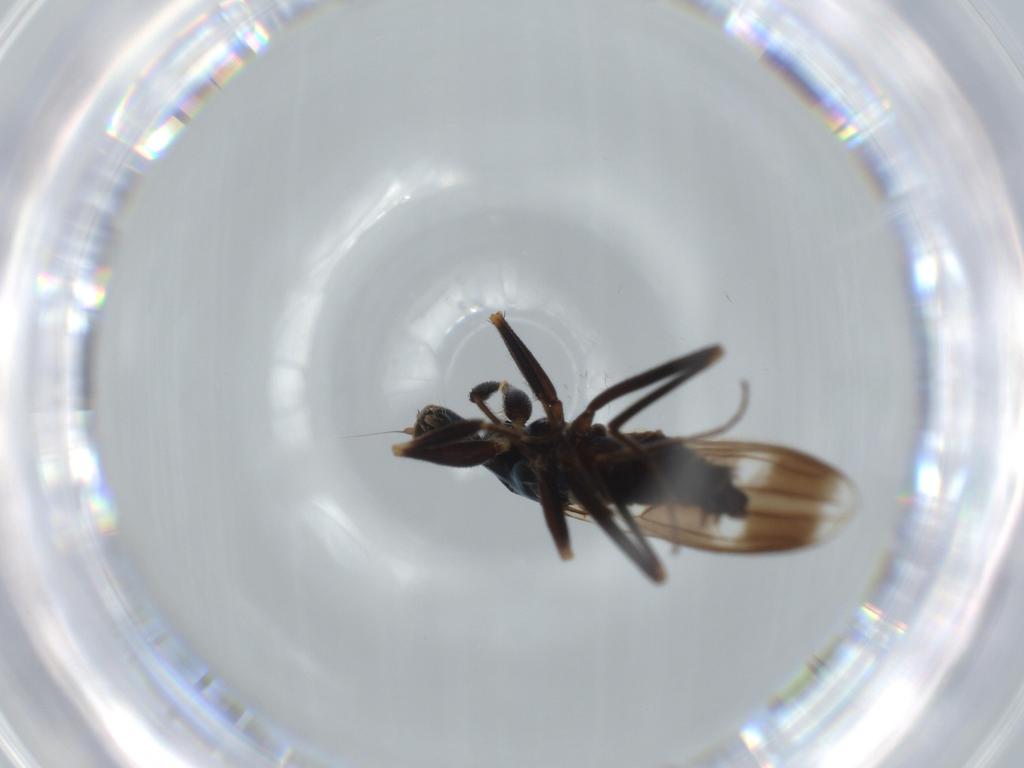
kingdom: Animalia
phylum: Arthropoda
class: Insecta
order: Diptera
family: Hybotidae
